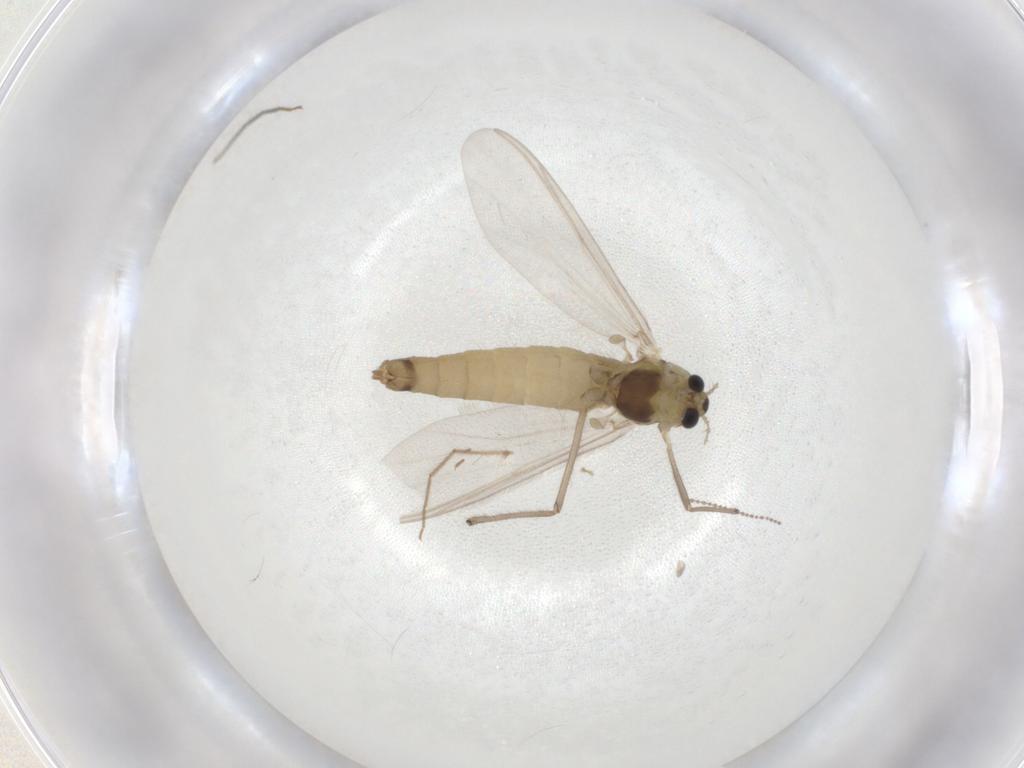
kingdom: Animalia
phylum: Arthropoda
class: Insecta
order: Diptera
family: Chironomidae
